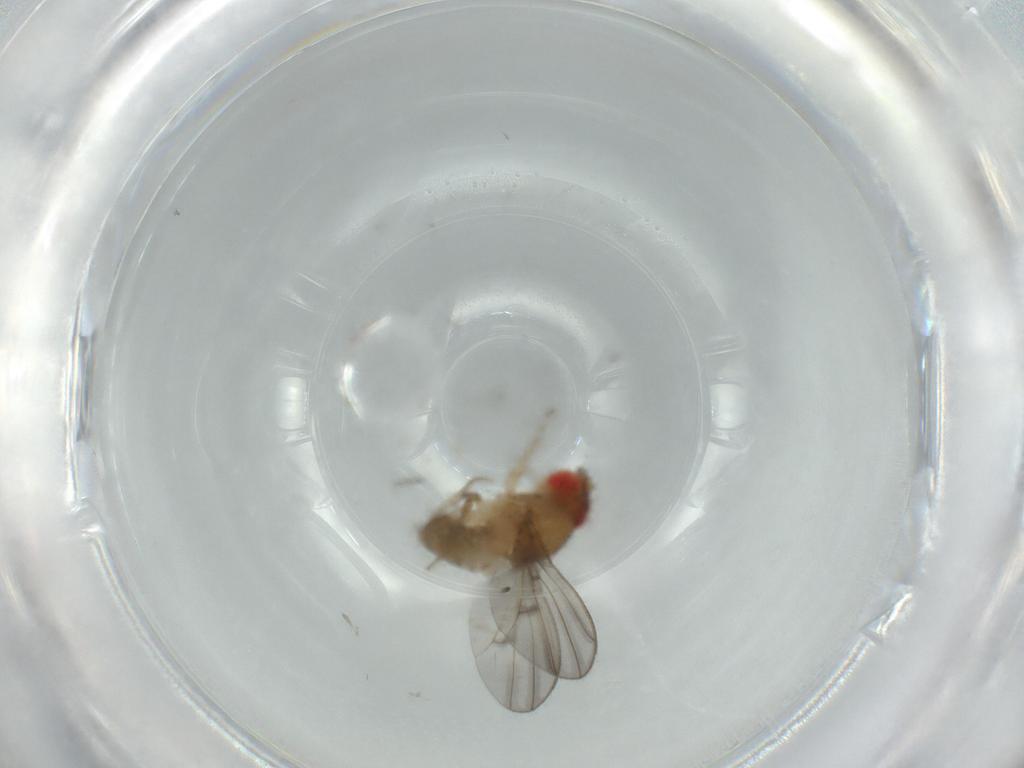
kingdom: Animalia
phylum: Arthropoda
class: Insecta
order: Diptera
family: Drosophilidae
